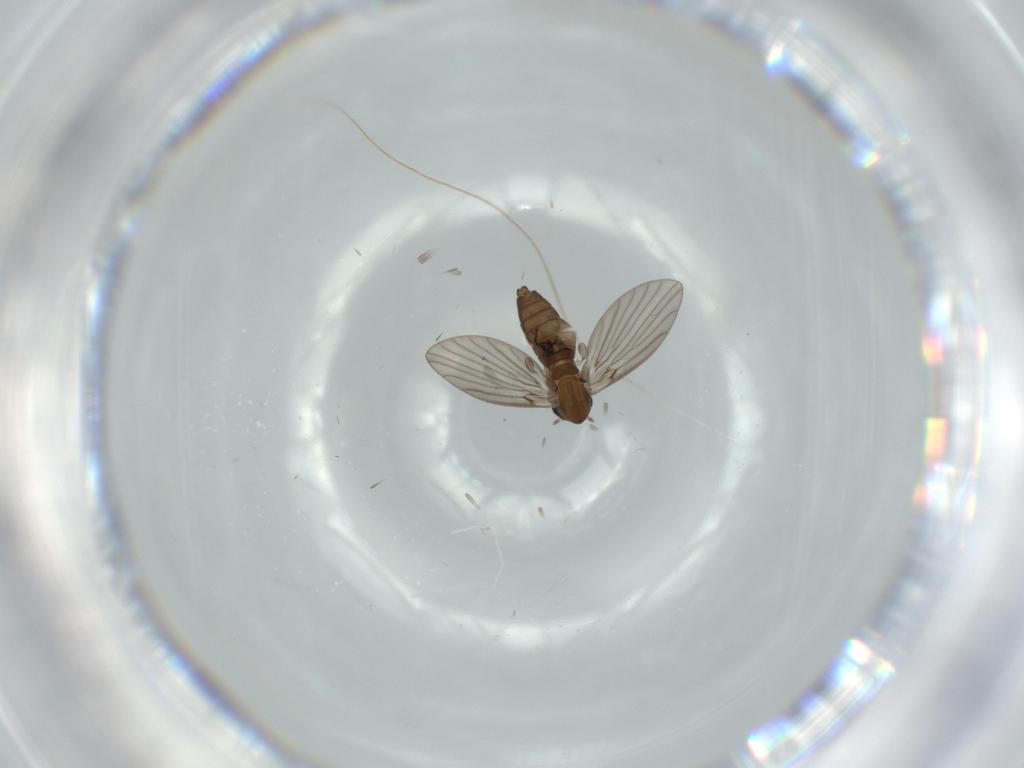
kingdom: Animalia
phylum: Arthropoda
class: Insecta
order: Diptera
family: Psychodidae
